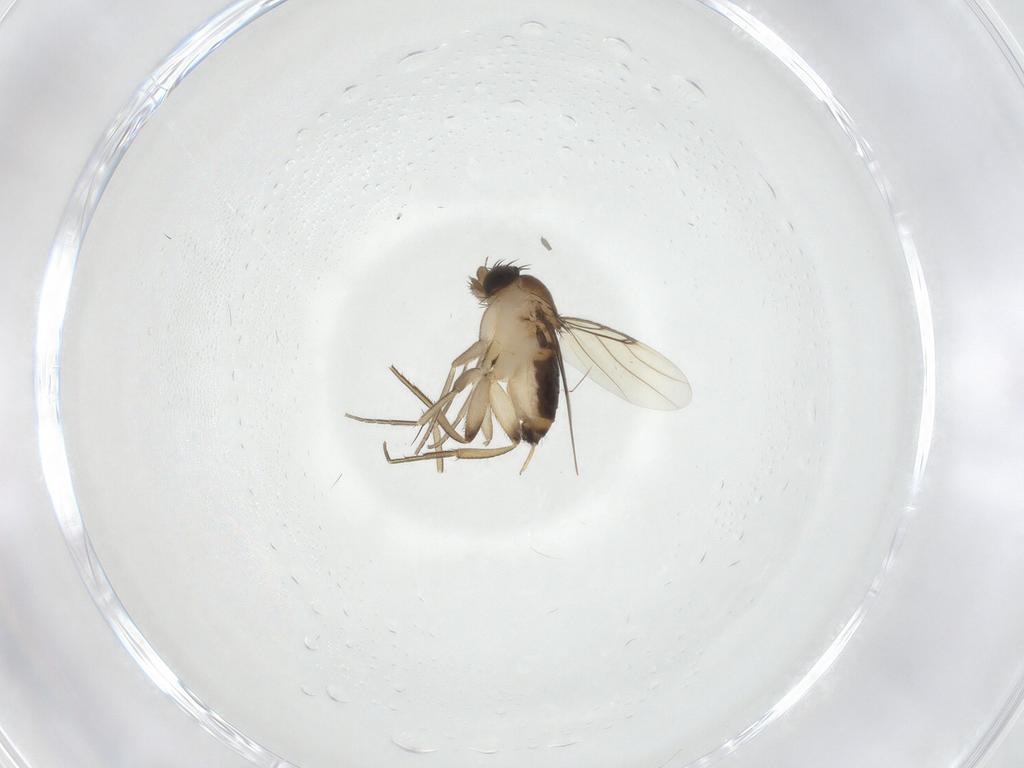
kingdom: Animalia
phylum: Arthropoda
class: Insecta
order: Diptera
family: Phoridae
